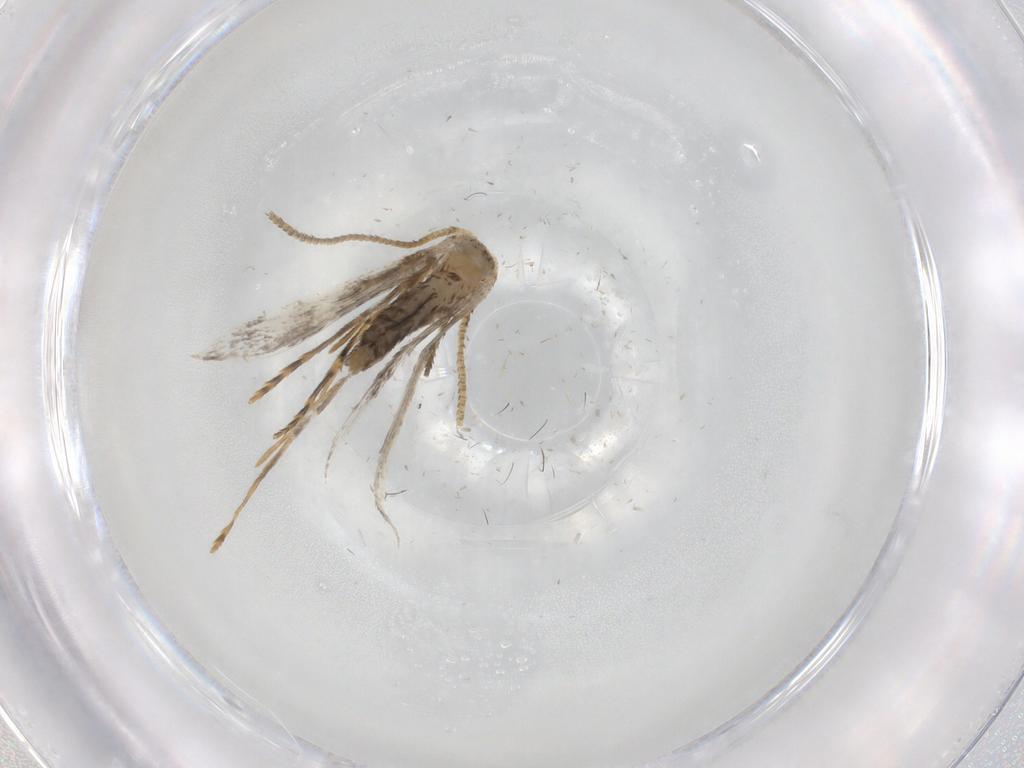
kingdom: Animalia
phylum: Arthropoda
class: Insecta
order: Lepidoptera
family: Tineidae
